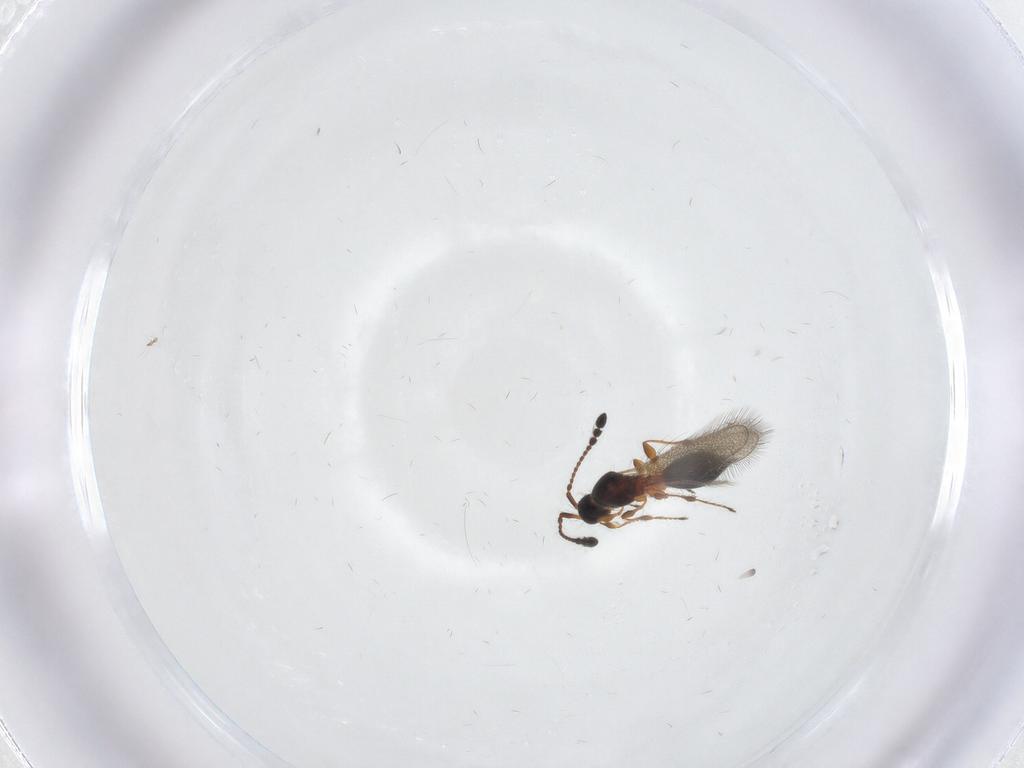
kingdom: Animalia
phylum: Arthropoda
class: Insecta
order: Hymenoptera
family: Diapriidae
